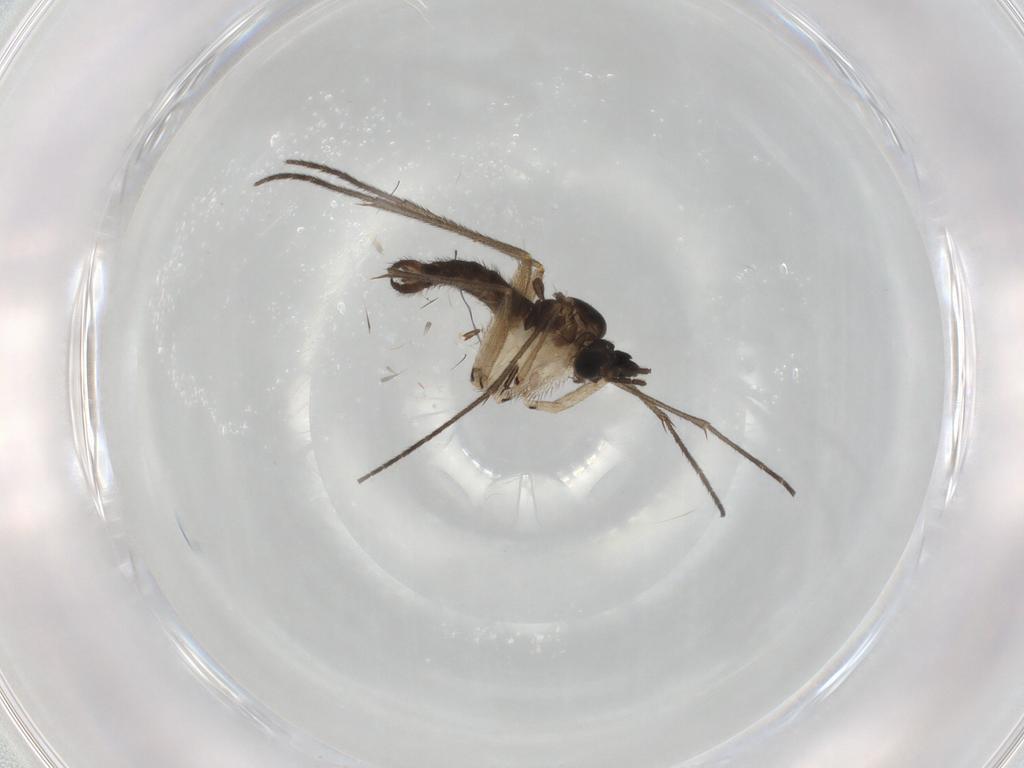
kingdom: Animalia
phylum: Arthropoda
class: Insecta
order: Diptera
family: Sciaridae
